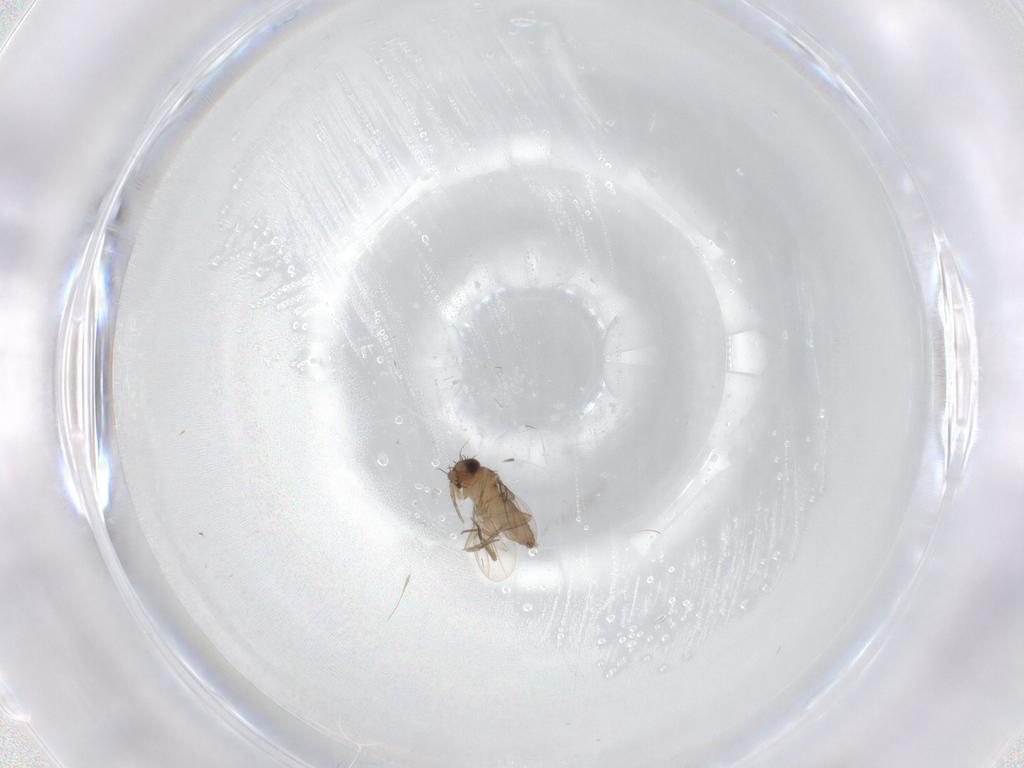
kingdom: Animalia
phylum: Arthropoda
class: Insecta
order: Diptera
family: Phoridae
